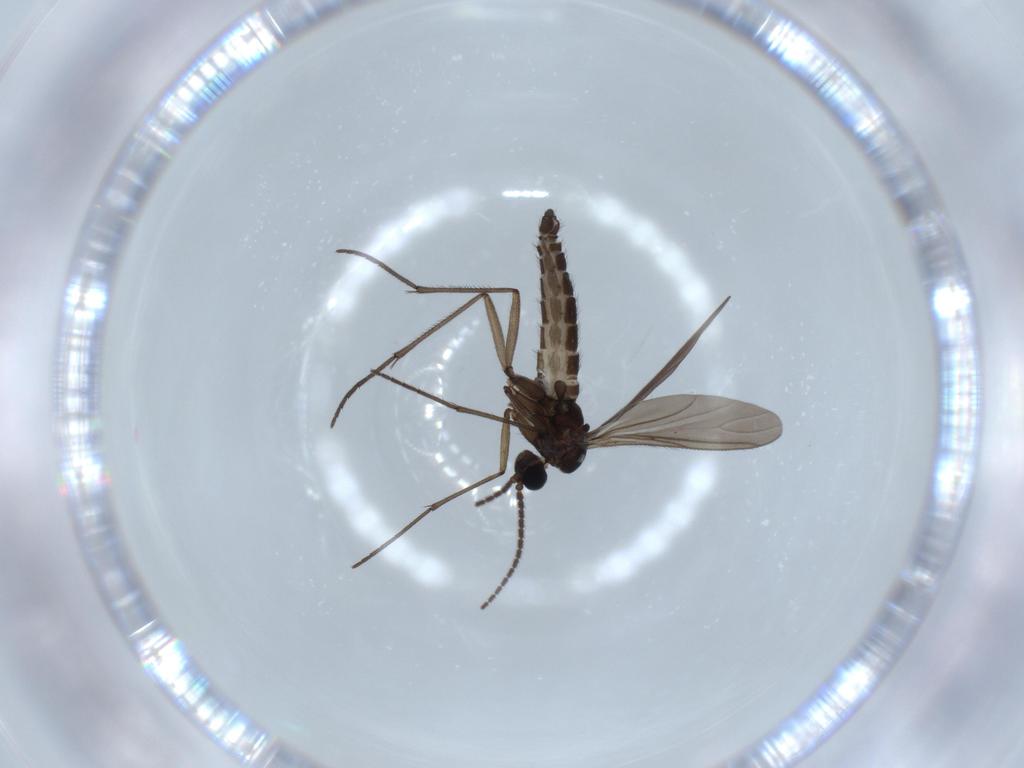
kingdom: Animalia
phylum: Arthropoda
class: Insecta
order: Diptera
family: Sciaridae
